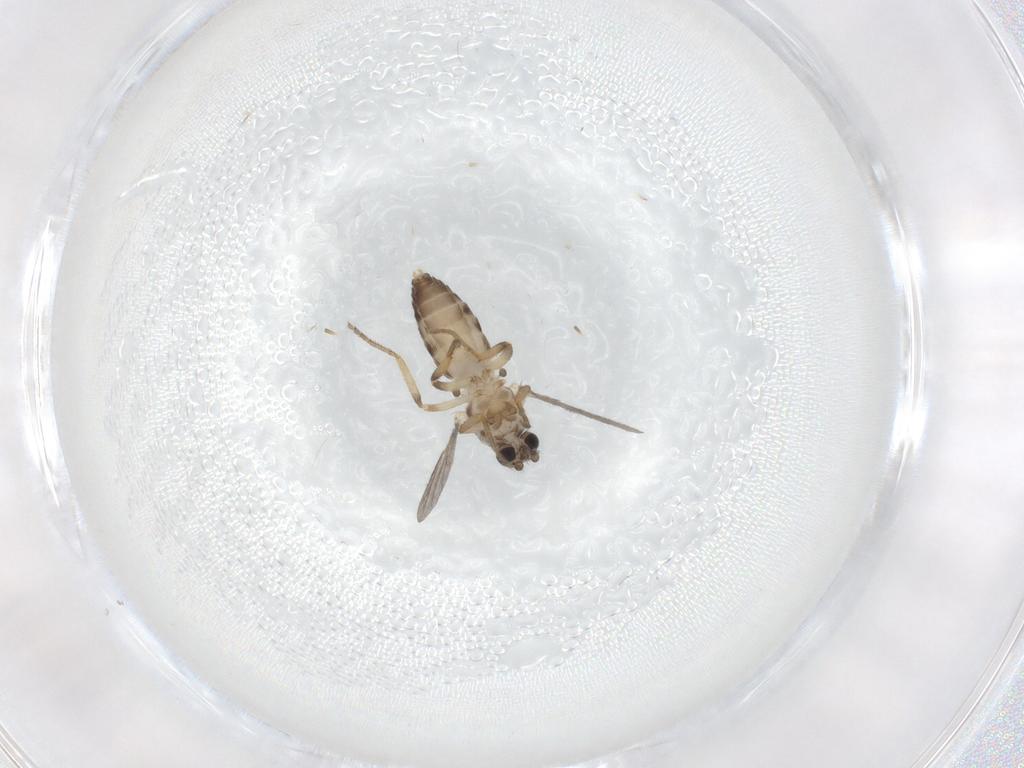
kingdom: Animalia
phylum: Arthropoda
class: Insecta
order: Diptera
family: Ceratopogonidae
